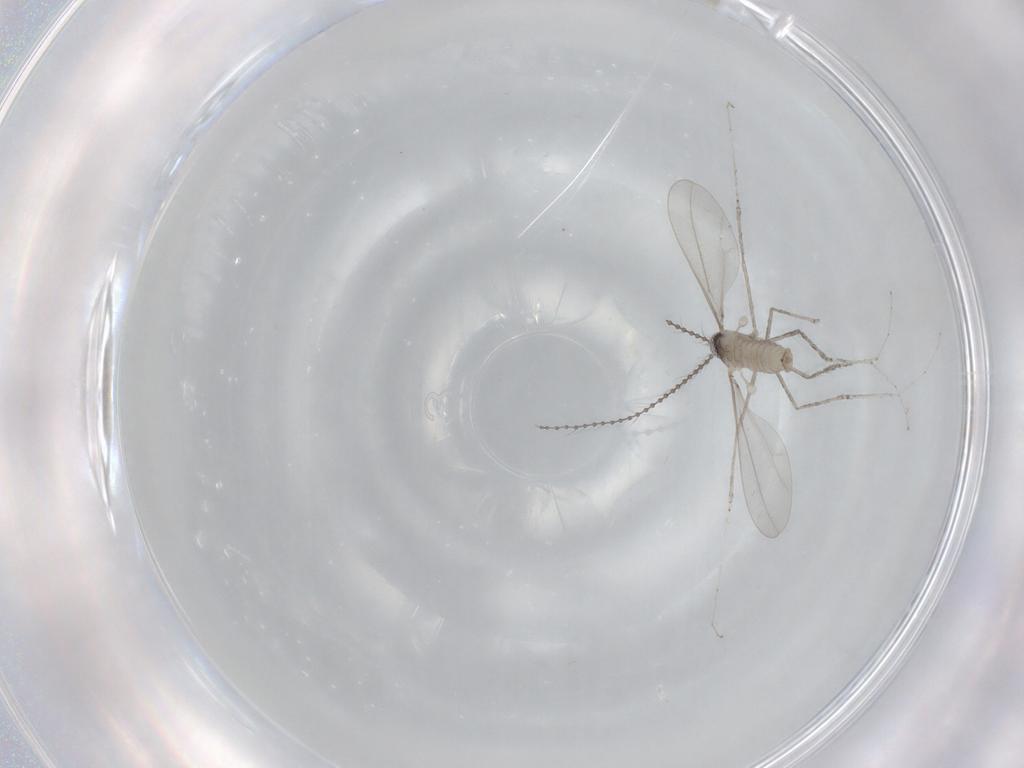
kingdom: Animalia
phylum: Arthropoda
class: Insecta
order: Diptera
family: Cecidomyiidae
